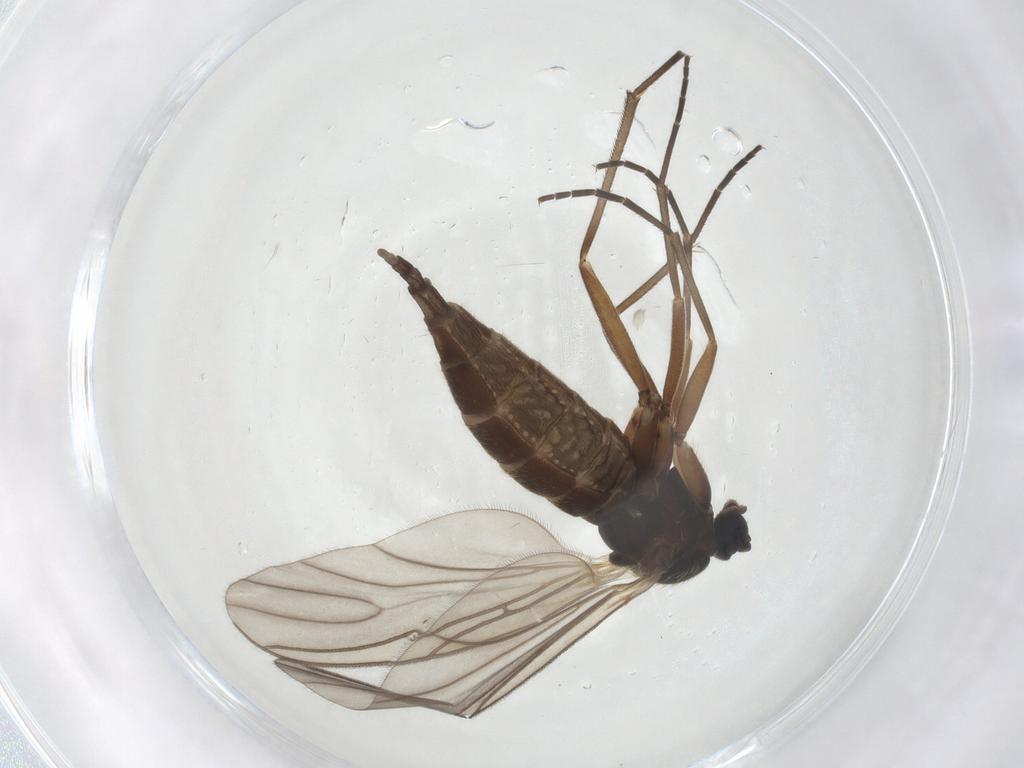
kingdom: Animalia
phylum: Arthropoda
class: Insecta
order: Diptera
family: Sciaridae
